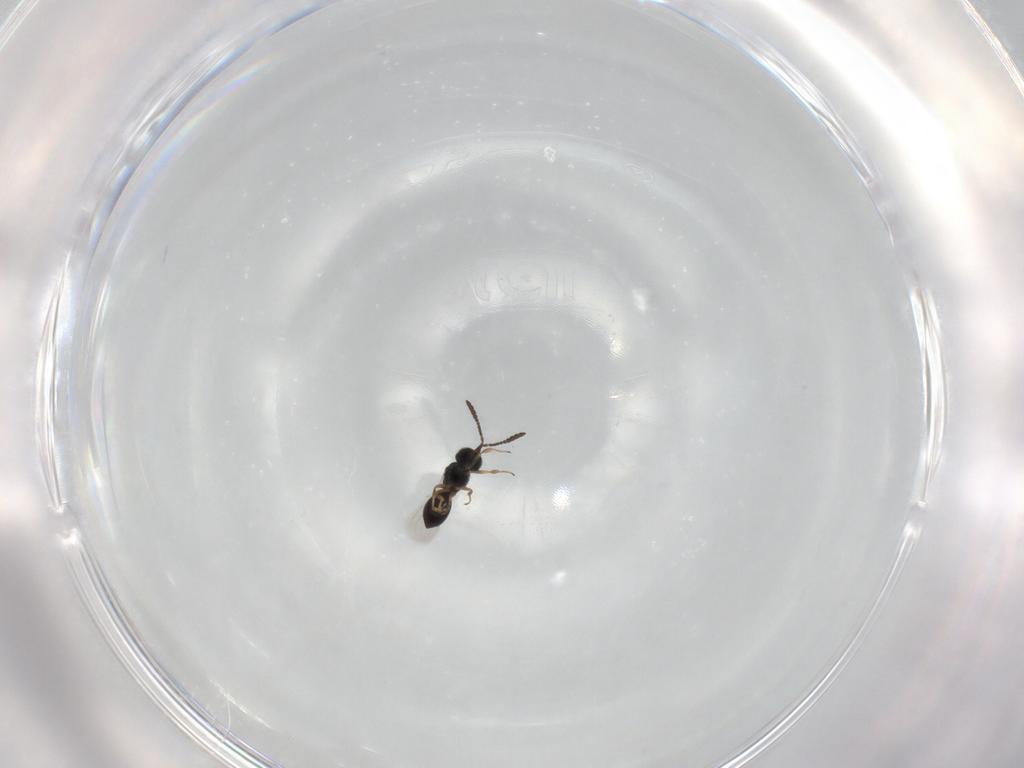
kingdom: Animalia
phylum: Arthropoda
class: Insecta
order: Hymenoptera
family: Scelionidae
